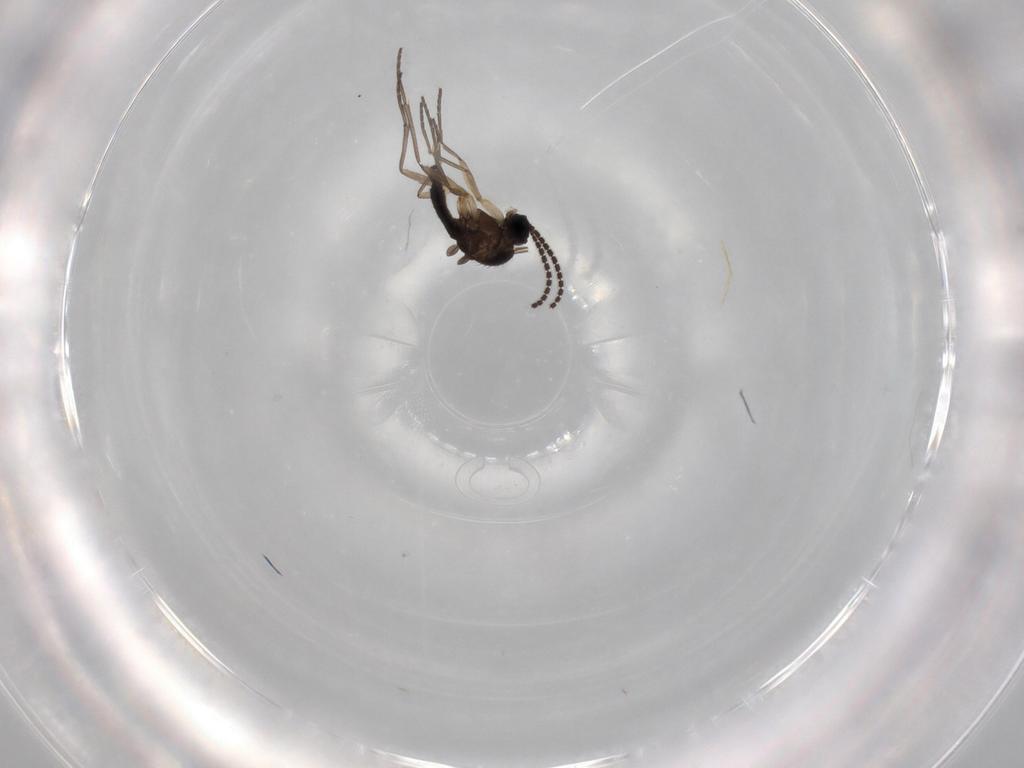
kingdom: Animalia
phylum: Arthropoda
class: Insecta
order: Diptera
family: Sciaridae
